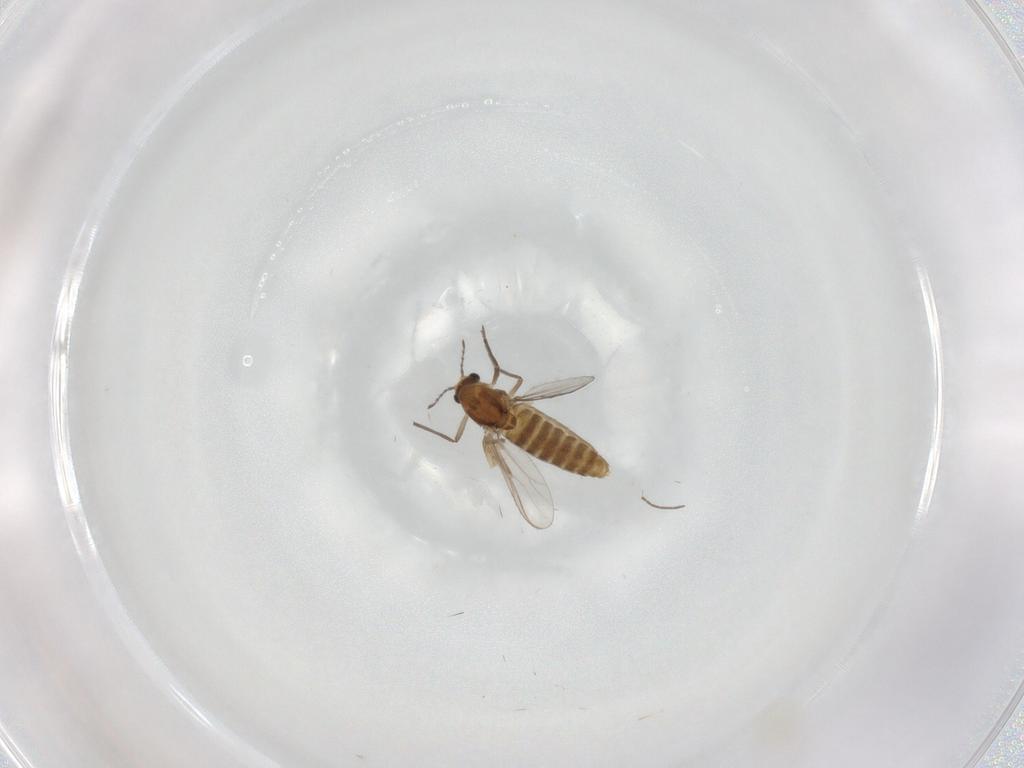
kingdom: Animalia
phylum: Arthropoda
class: Insecta
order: Diptera
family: Chironomidae
